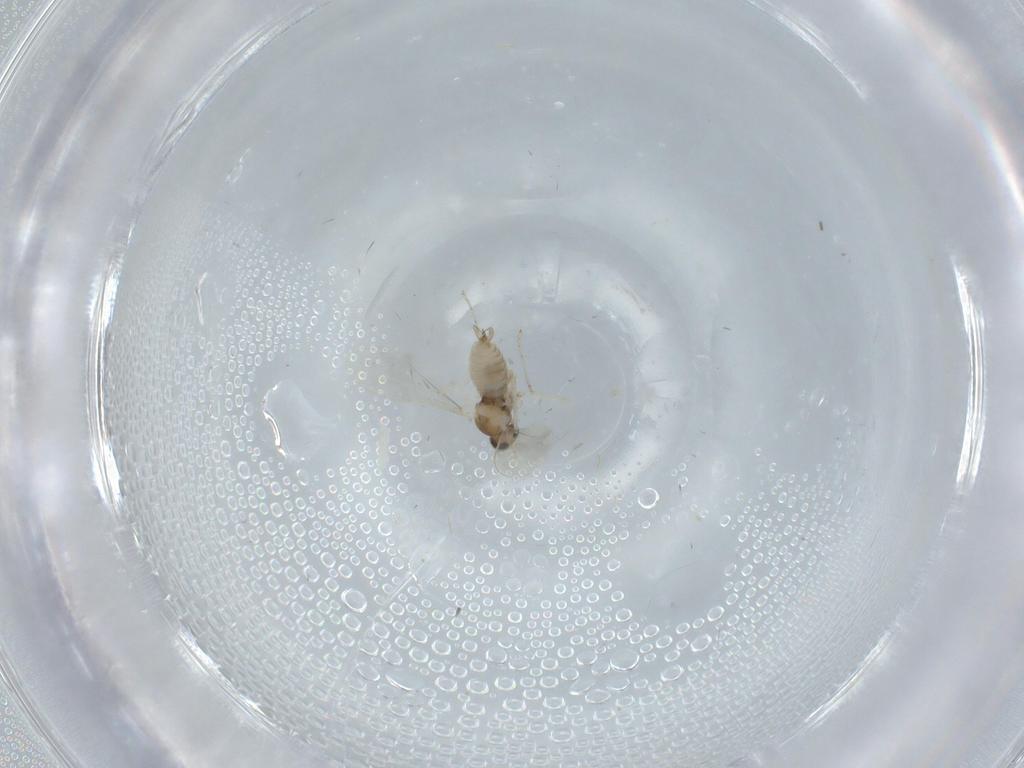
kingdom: Animalia
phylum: Arthropoda
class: Insecta
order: Diptera
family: Cecidomyiidae
